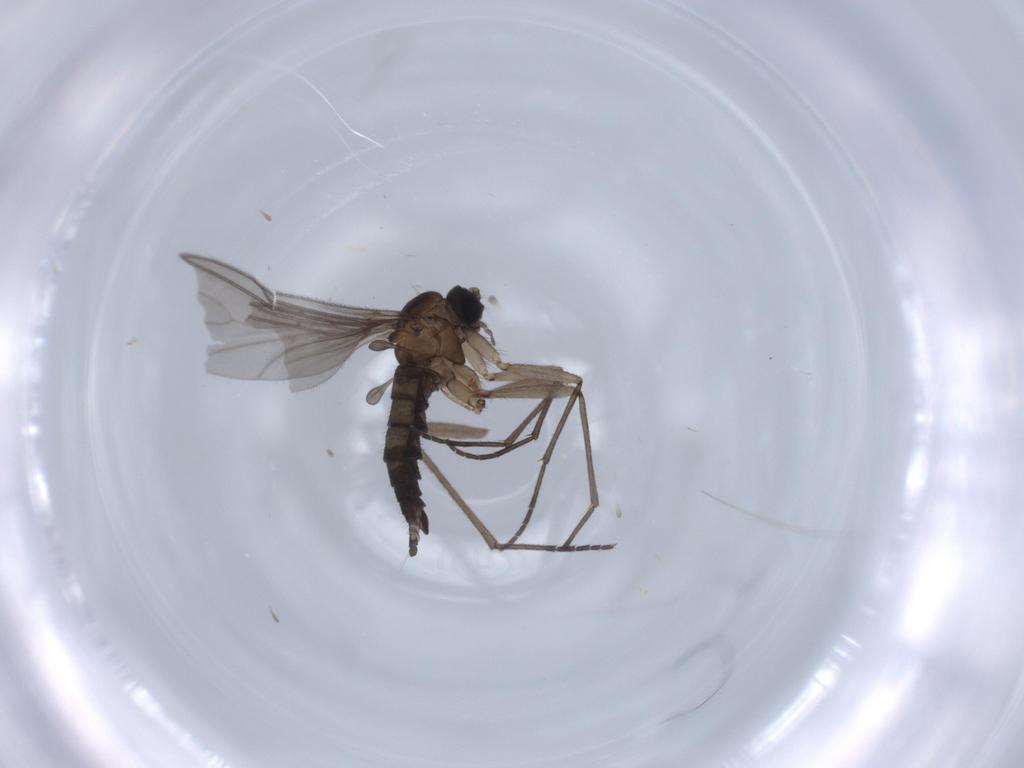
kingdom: Animalia
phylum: Arthropoda
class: Insecta
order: Diptera
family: Sciaridae
